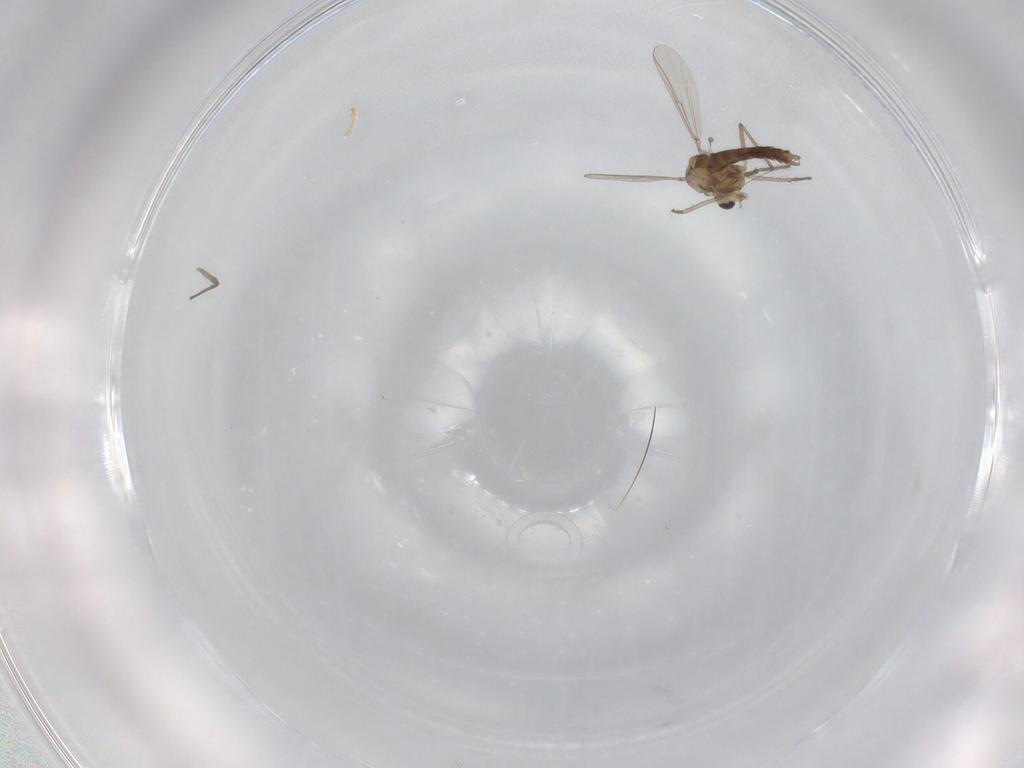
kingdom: Animalia
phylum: Arthropoda
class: Insecta
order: Diptera
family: Chironomidae
